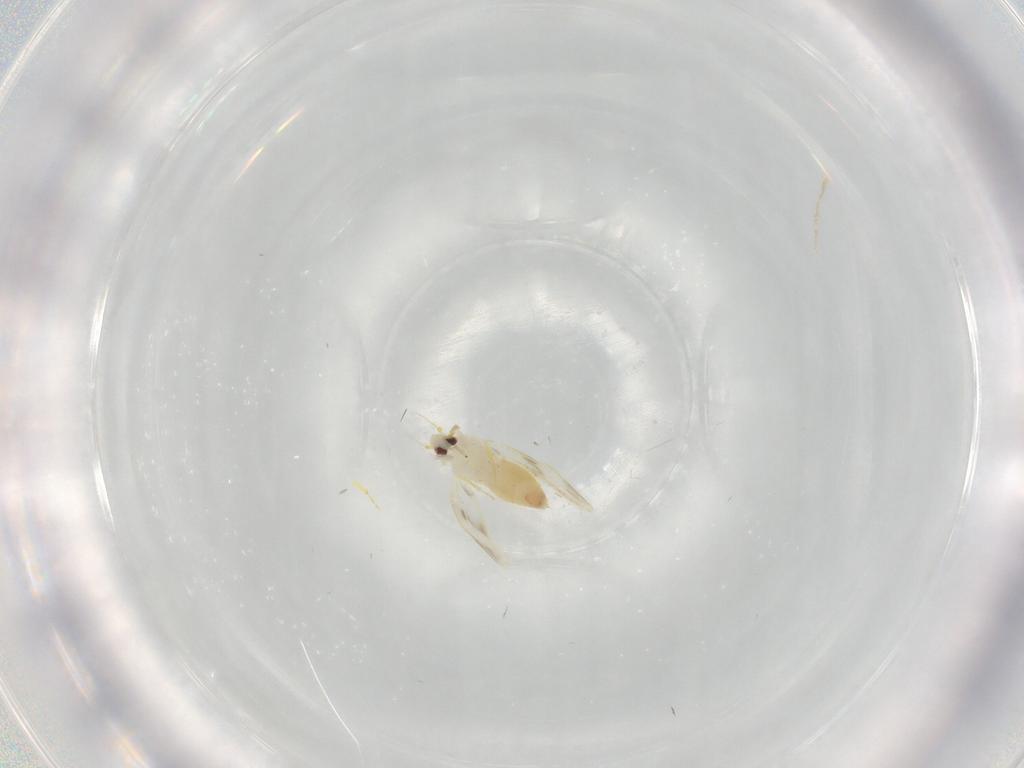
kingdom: Animalia
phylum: Arthropoda
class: Insecta
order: Hemiptera
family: Aleyrodidae
